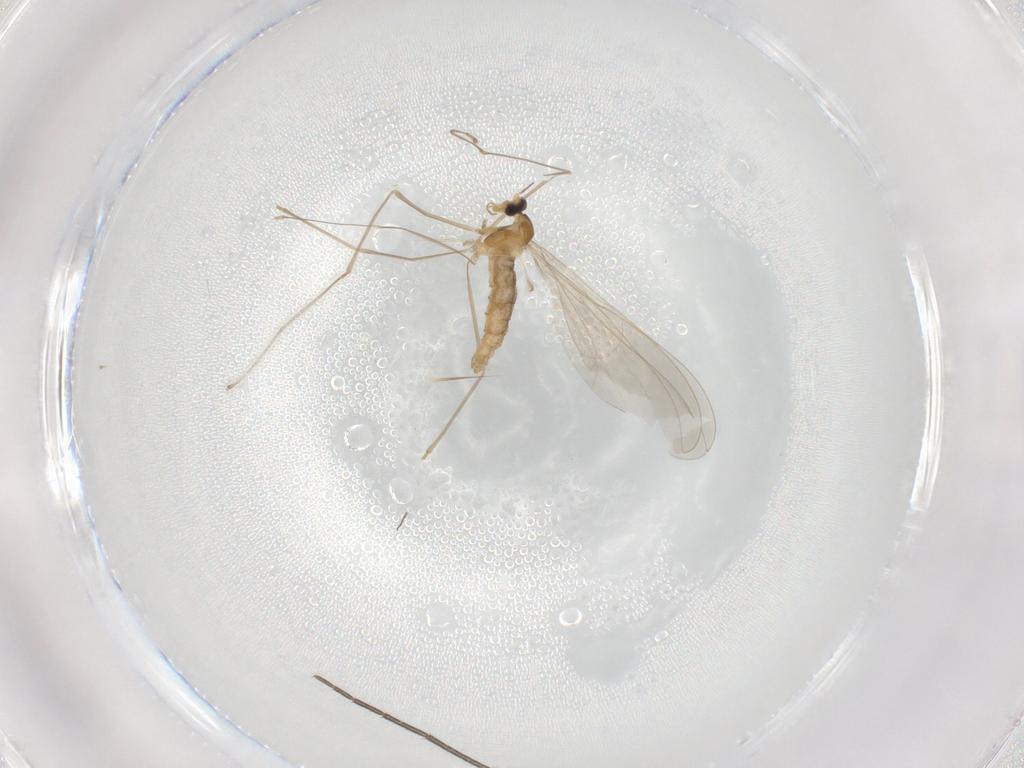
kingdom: Animalia
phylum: Arthropoda
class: Insecta
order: Diptera
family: Cecidomyiidae
